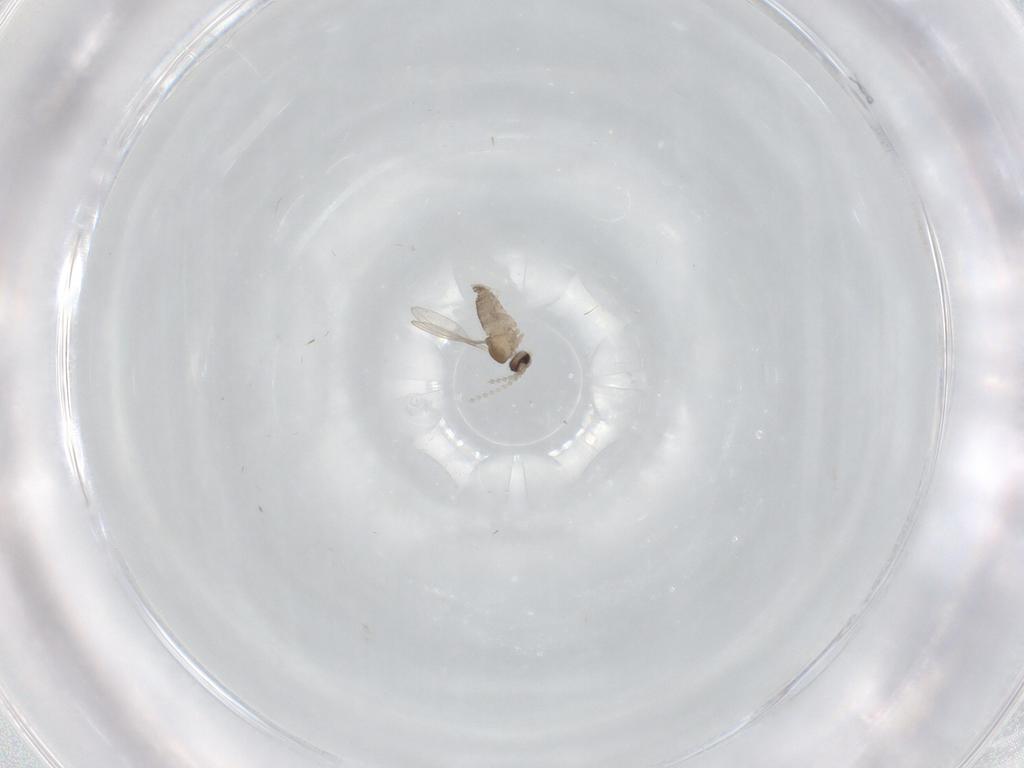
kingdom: Animalia
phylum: Arthropoda
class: Insecta
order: Diptera
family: Cecidomyiidae
